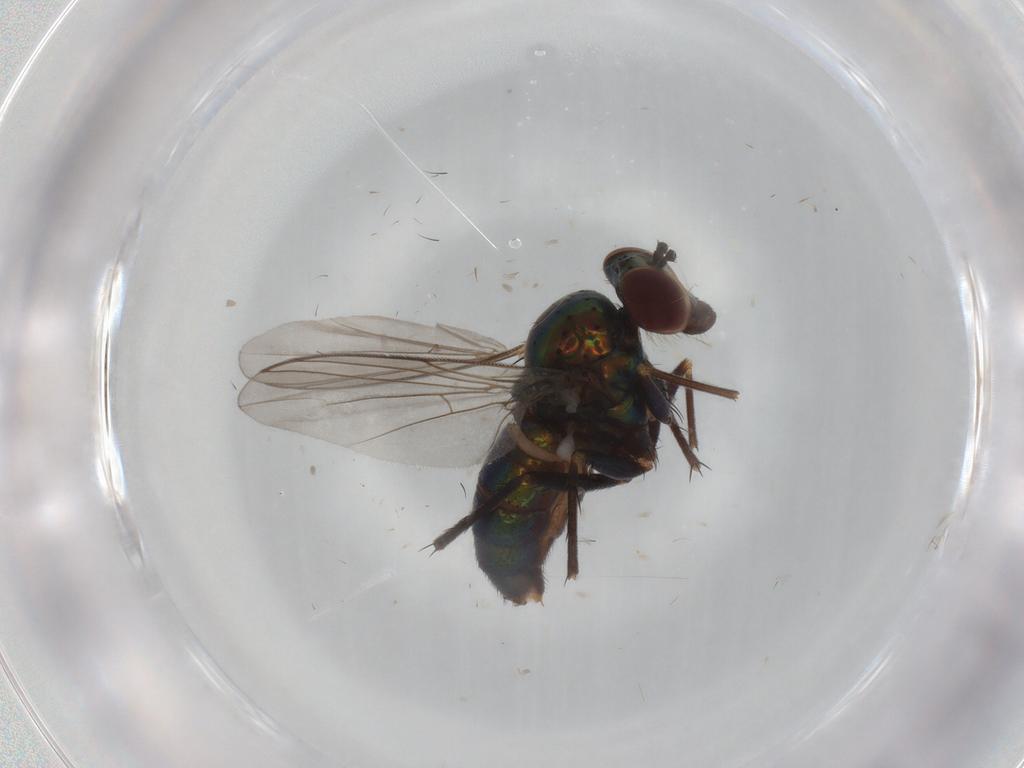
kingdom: Animalia
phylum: Arthropoda
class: Insecta
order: Diptera
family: Dolichopodidae
